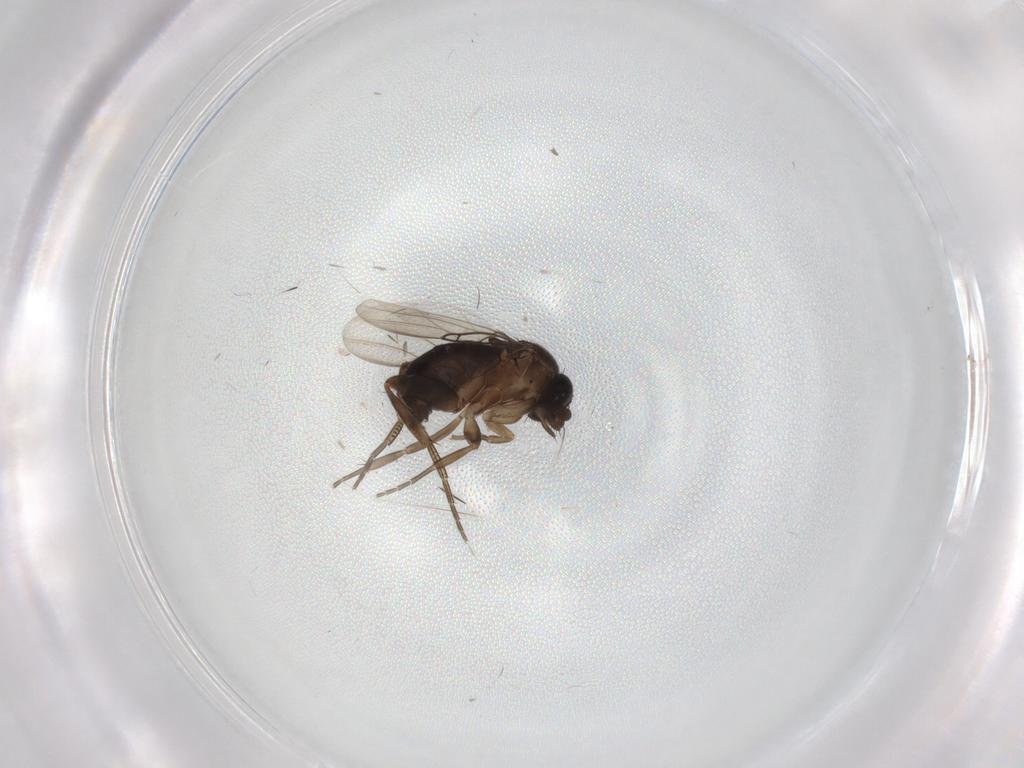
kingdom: Animalia
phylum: Arthropoda
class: Insecta
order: Diptera
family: Phoridae
